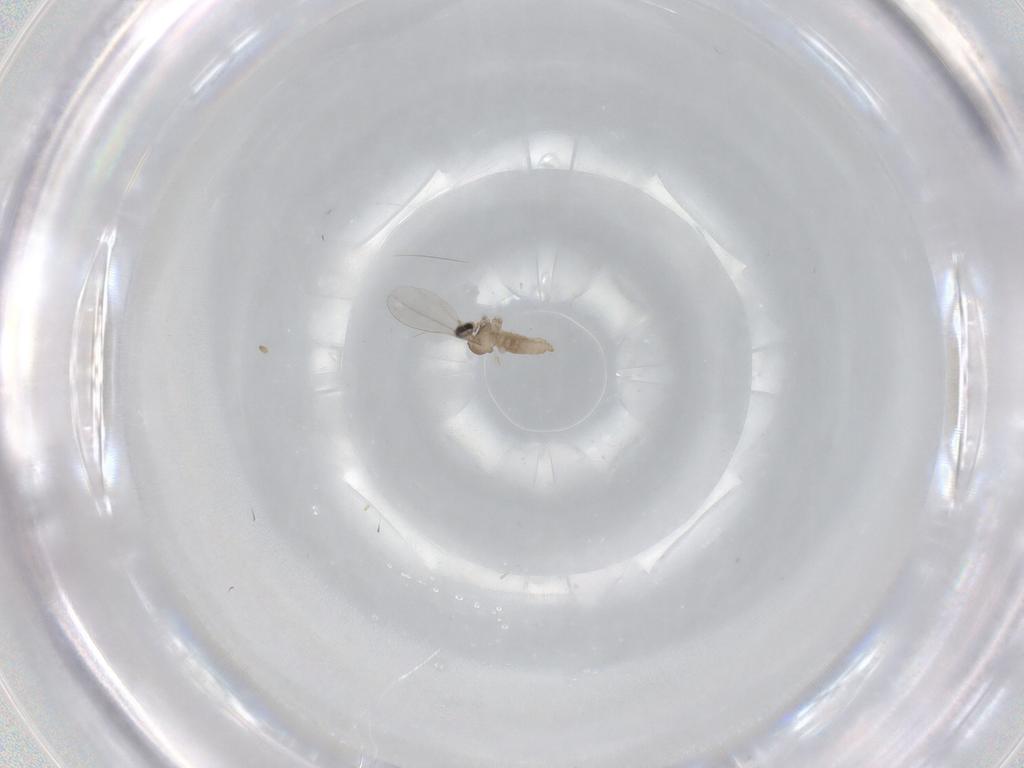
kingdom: Animalia
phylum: Arthropoda
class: Insecta
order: Diptera
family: Cecidomyiidae
